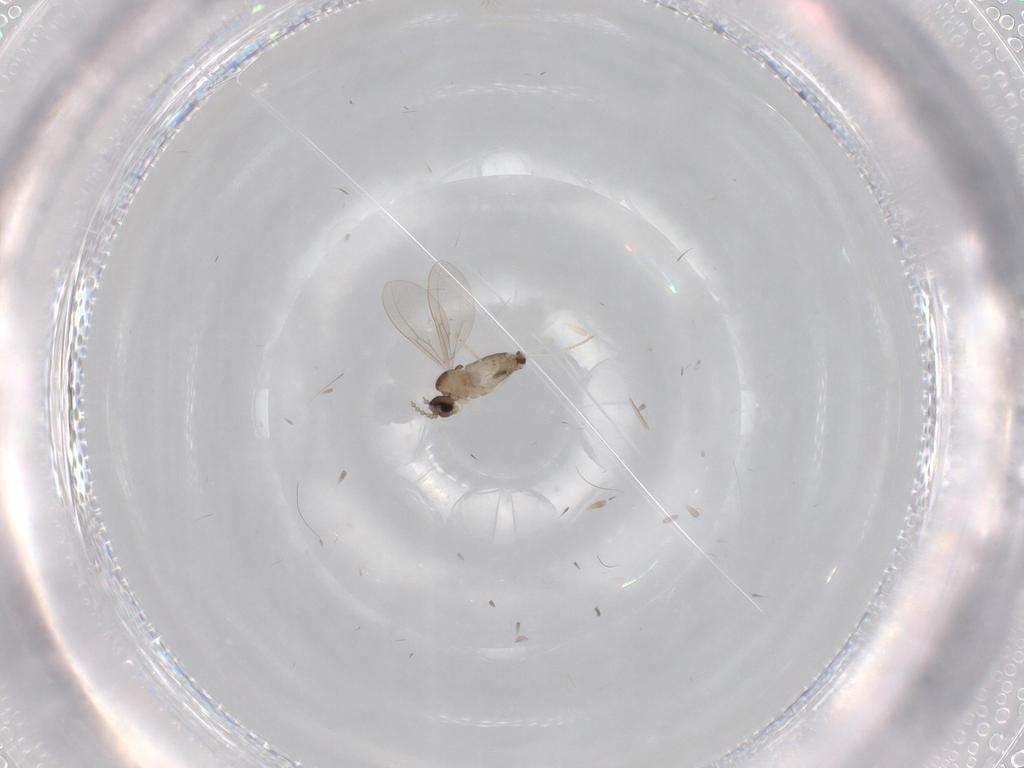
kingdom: Animalia
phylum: Arthropoda
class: Insecta
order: Diptera
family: Cecidomyiidae
